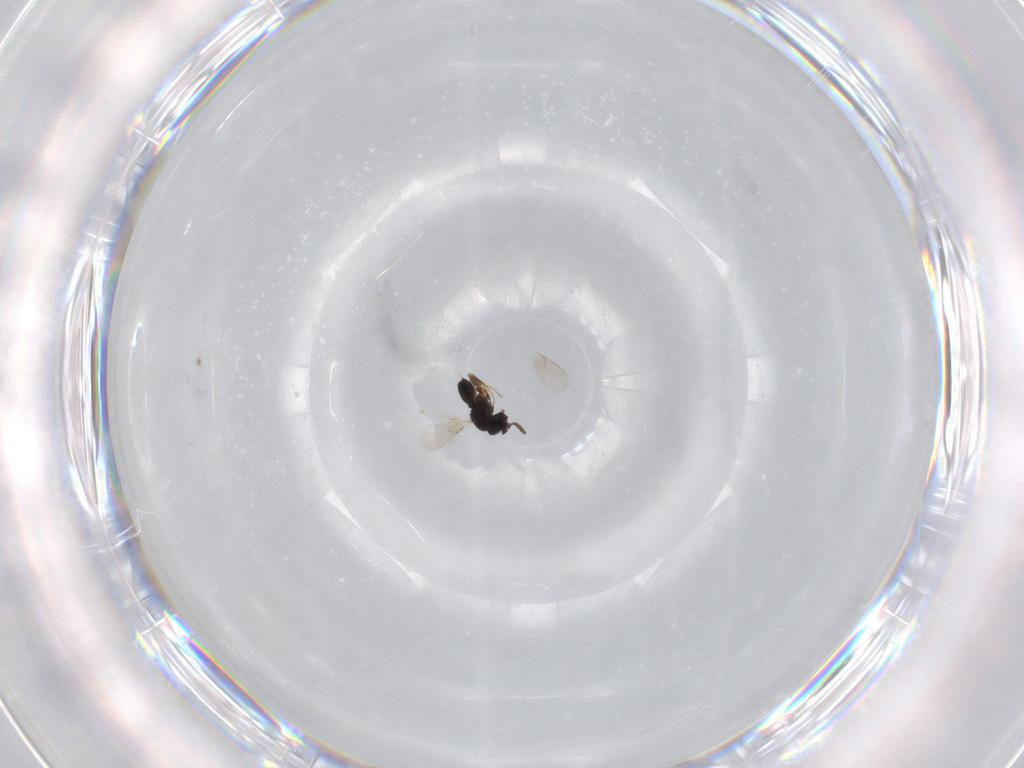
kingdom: Animalia
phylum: Arthropoda
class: Insecta
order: Hymenoptera
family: Scelionidae
